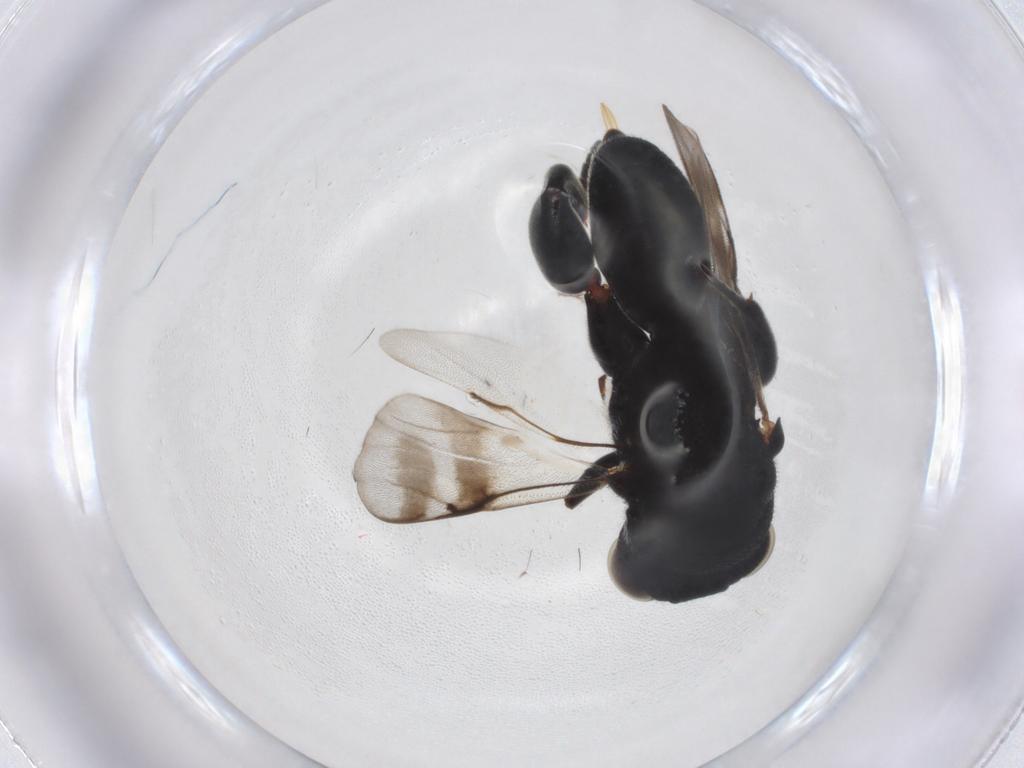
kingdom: Animalia
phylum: Arthropoda
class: Insecta
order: Hymenoptera
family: Chalcididae
